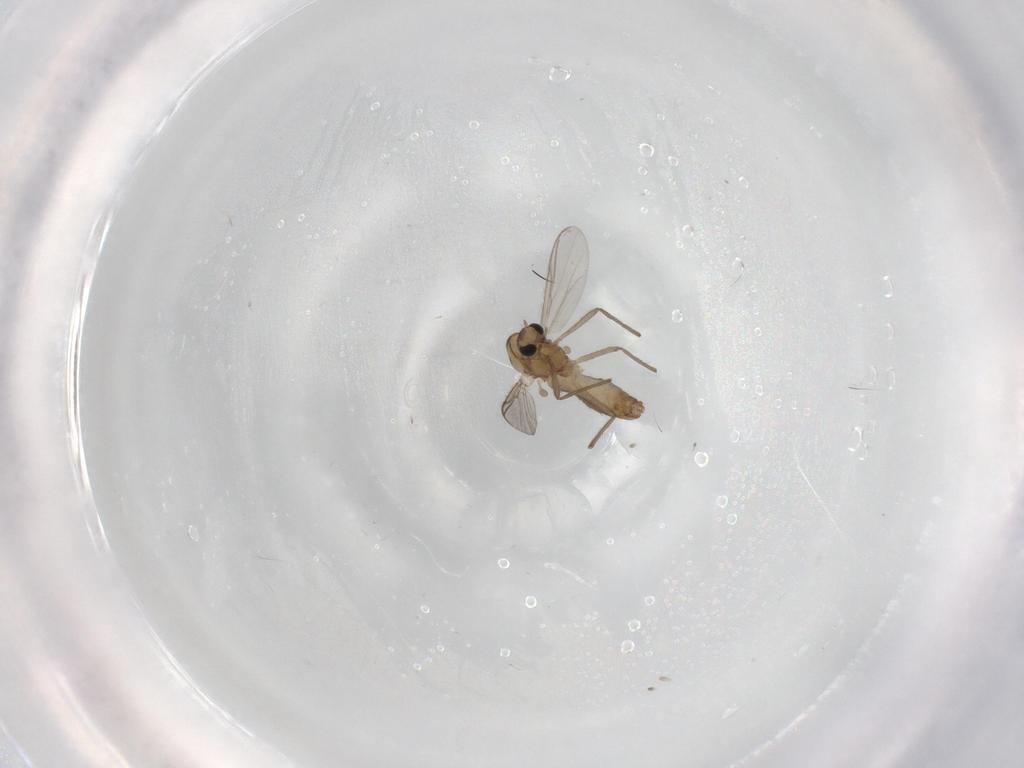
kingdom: Animalia
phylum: Arthropoda
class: Insecta
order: Diptera
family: Chironomidae
